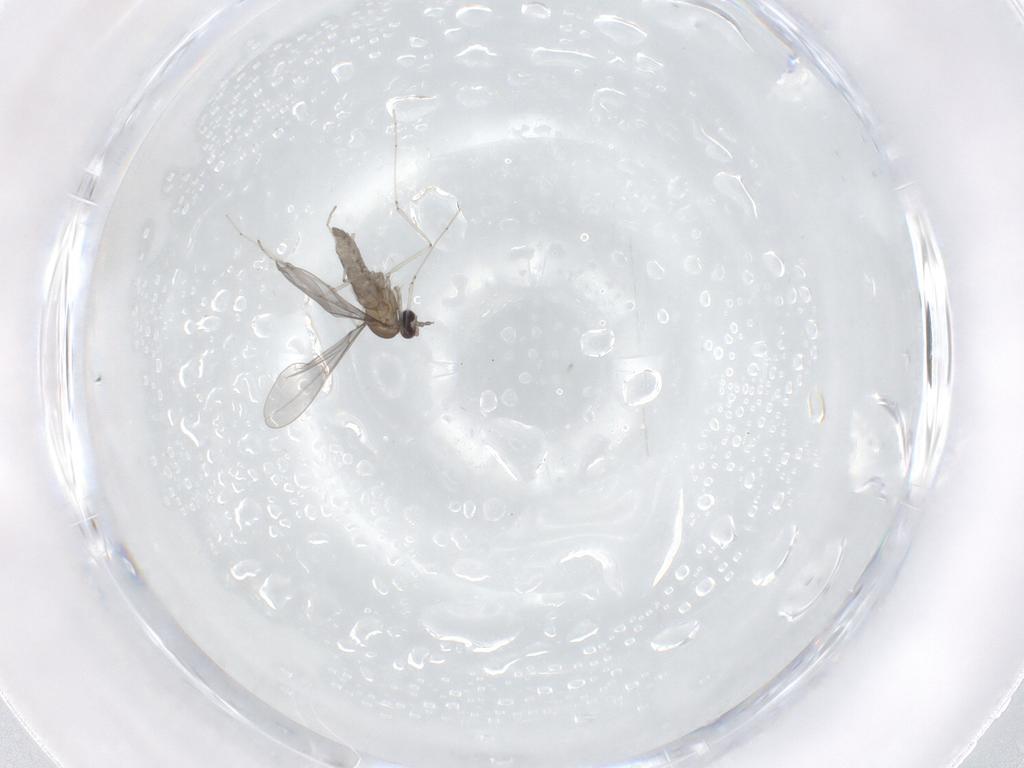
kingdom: Animalia
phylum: Arthropoda
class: Insecta
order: Diptera
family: Cecidomyiidae
